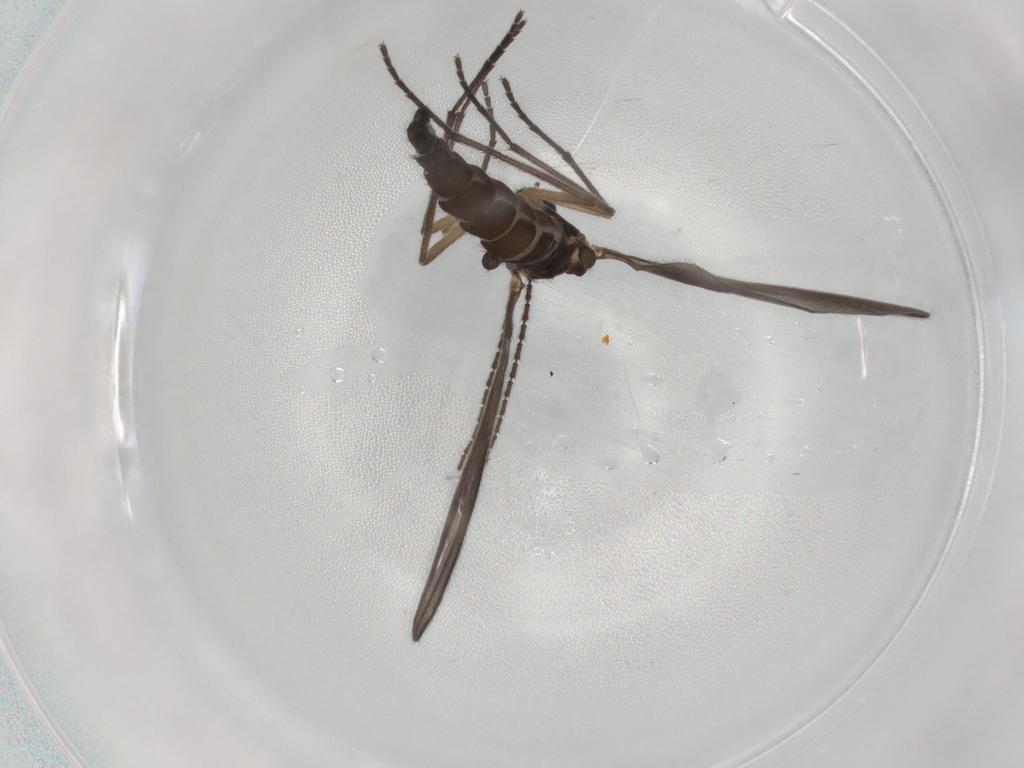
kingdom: Animalia
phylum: Arthropoda
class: Insecta
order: Diptera
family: Sciaridae
